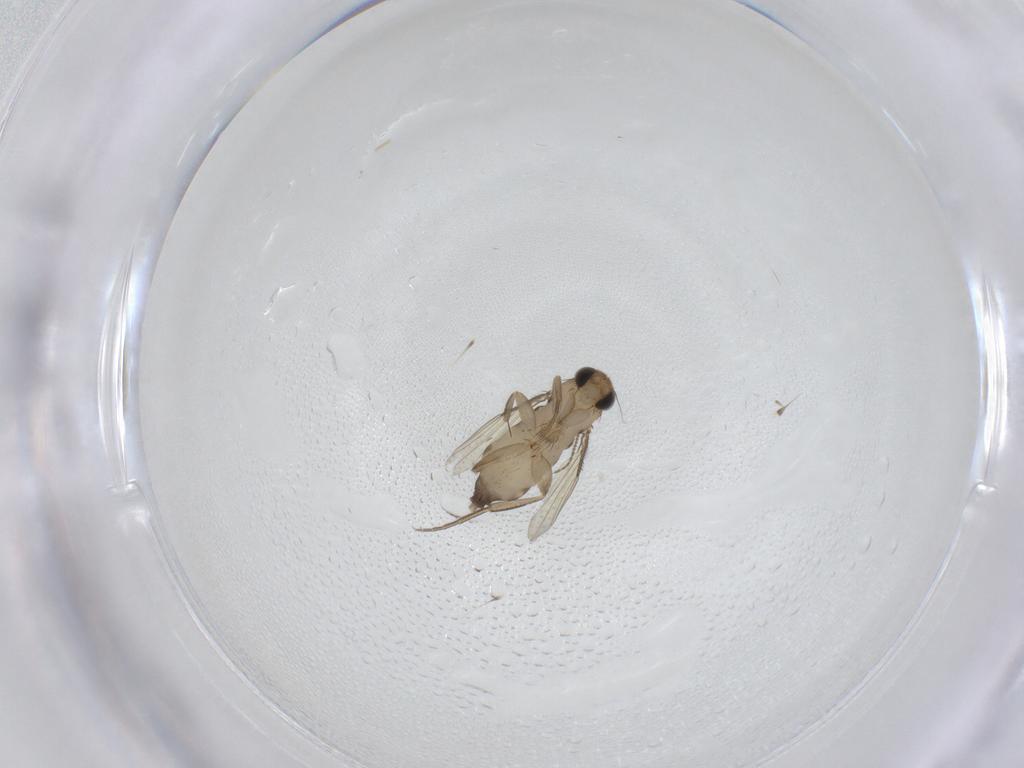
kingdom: Animalia
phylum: Arthropoda
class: Insecta
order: Diptera
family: Phoridae
